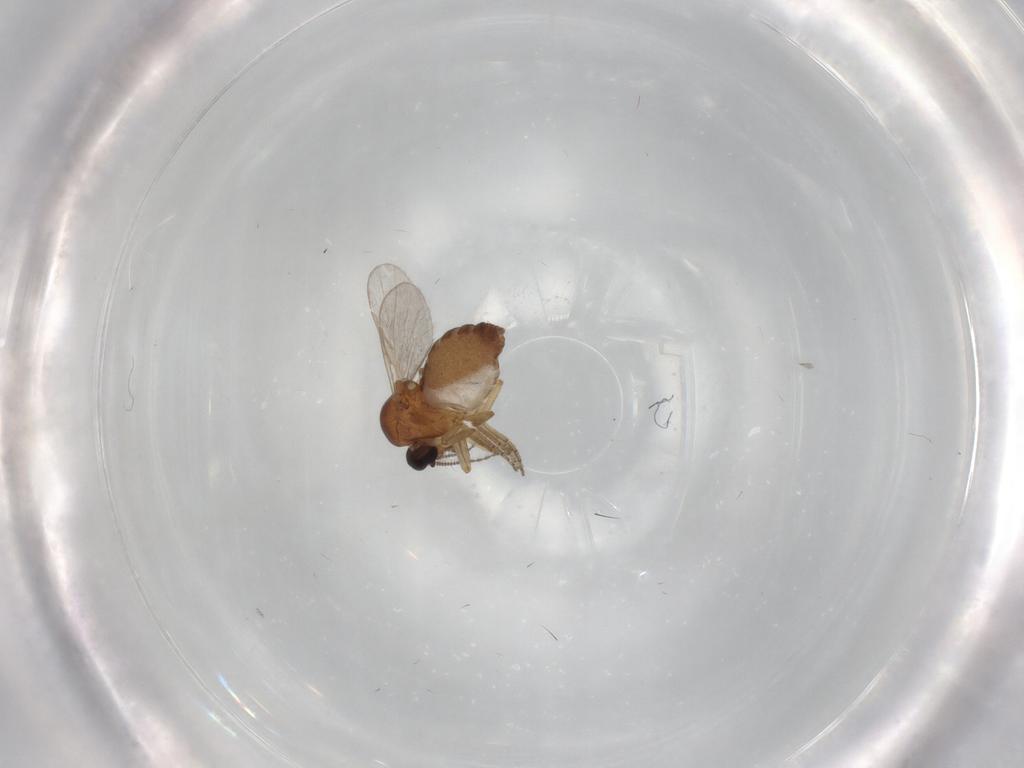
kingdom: Animalia
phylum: Arthropoda
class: Insecta
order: Diptera
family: Ceratopogonidae
